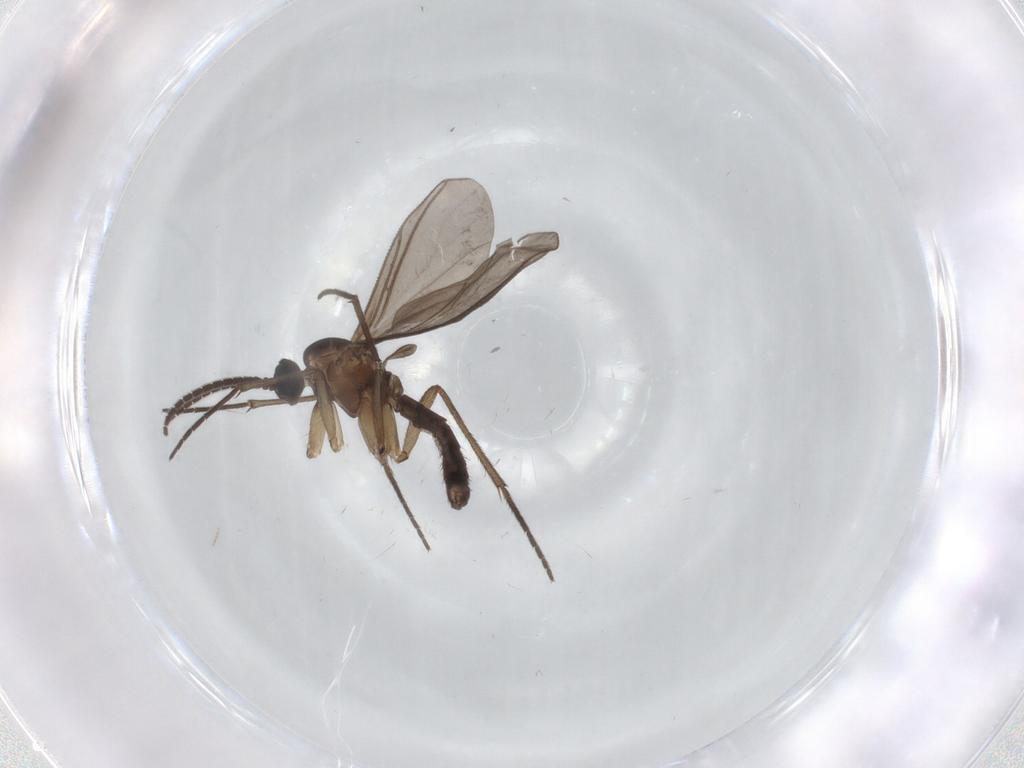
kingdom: Animalia
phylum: Arthropoda
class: Insecta
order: Diptera
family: Sciaridae
